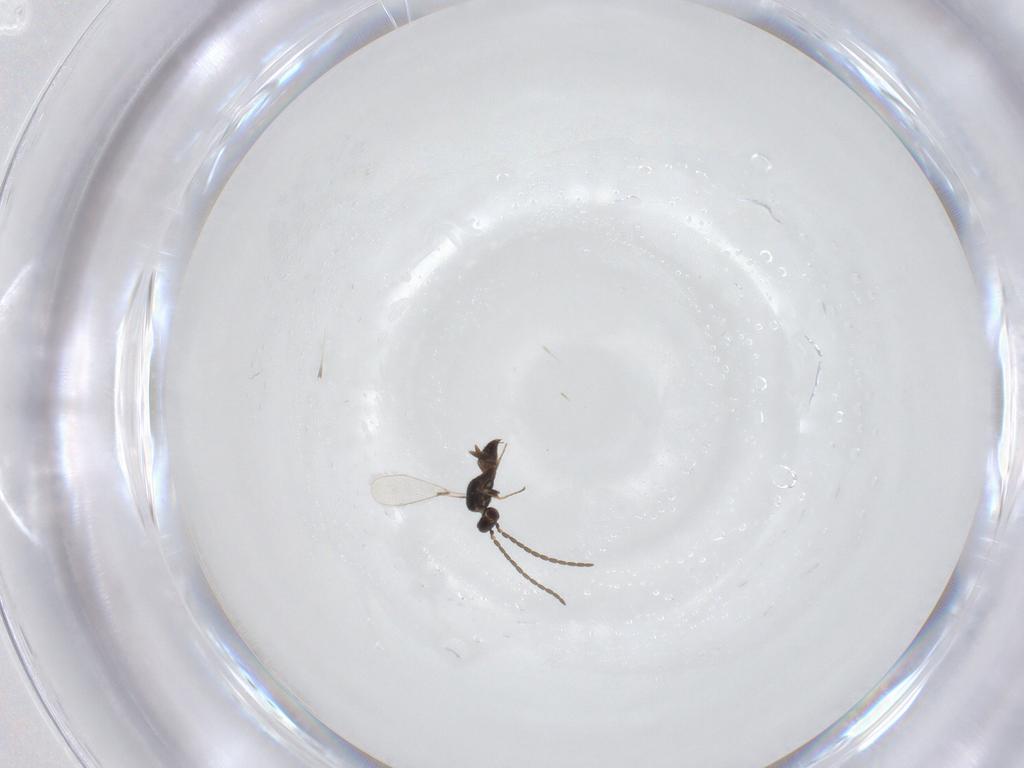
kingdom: Animalia
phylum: Arthropoda
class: Insecta
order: Hymenoptera
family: Mymaridae
